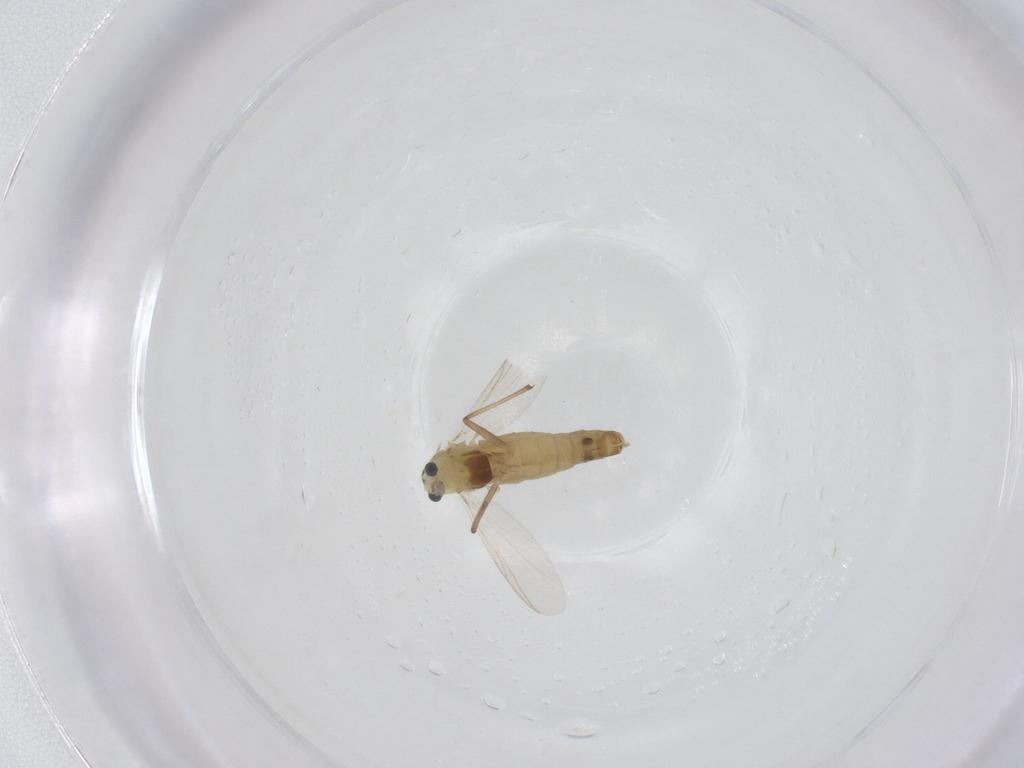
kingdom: Animalia
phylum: Arthropoda
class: Insecta
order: Diptera
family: Chironomidae
